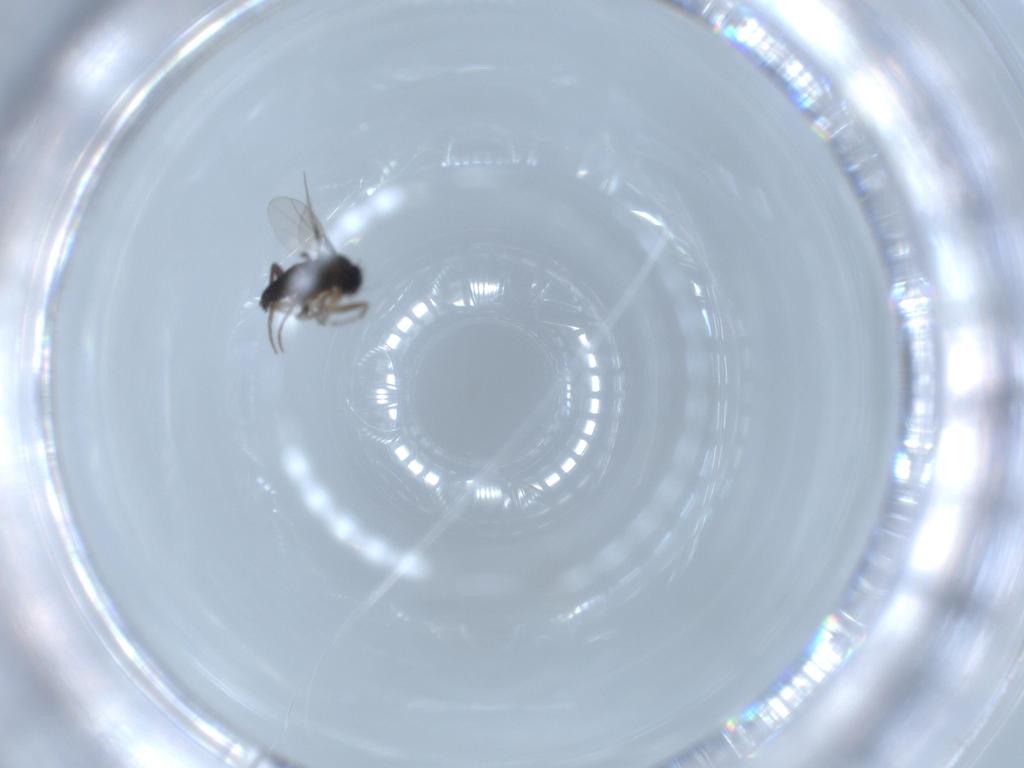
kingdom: Animalia
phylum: Arthropoda
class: Insecta
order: Diptera
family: Phoridae
